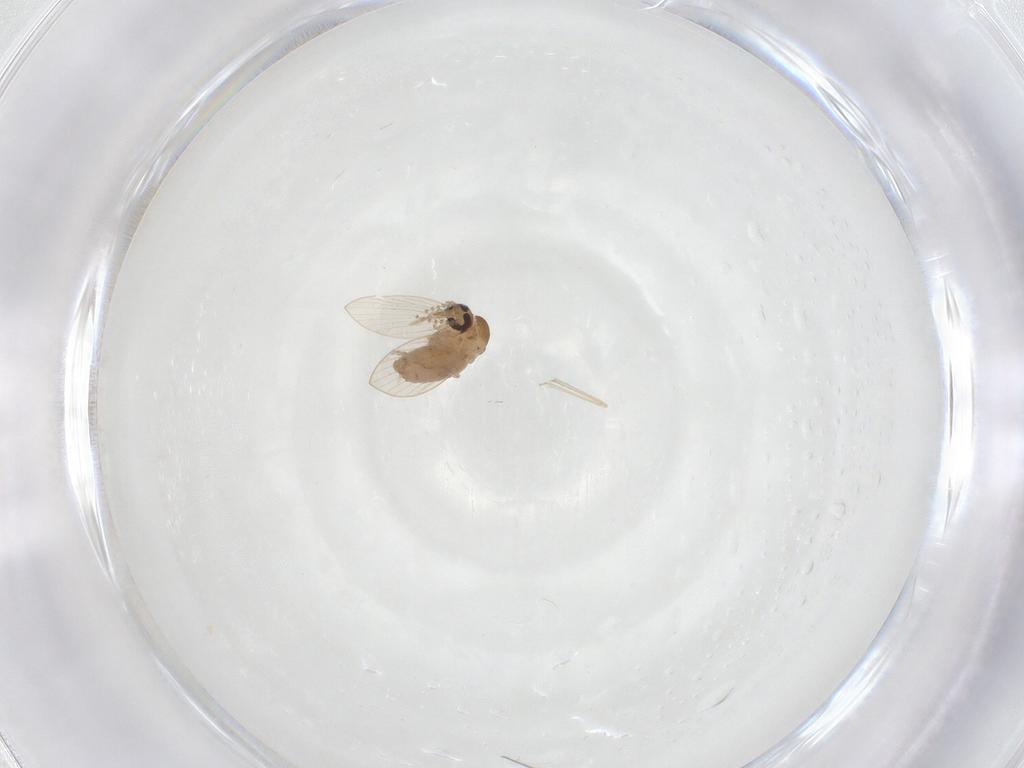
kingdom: Animalia
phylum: Arthropoda
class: Insecta
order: Diptera
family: Psychodidae
